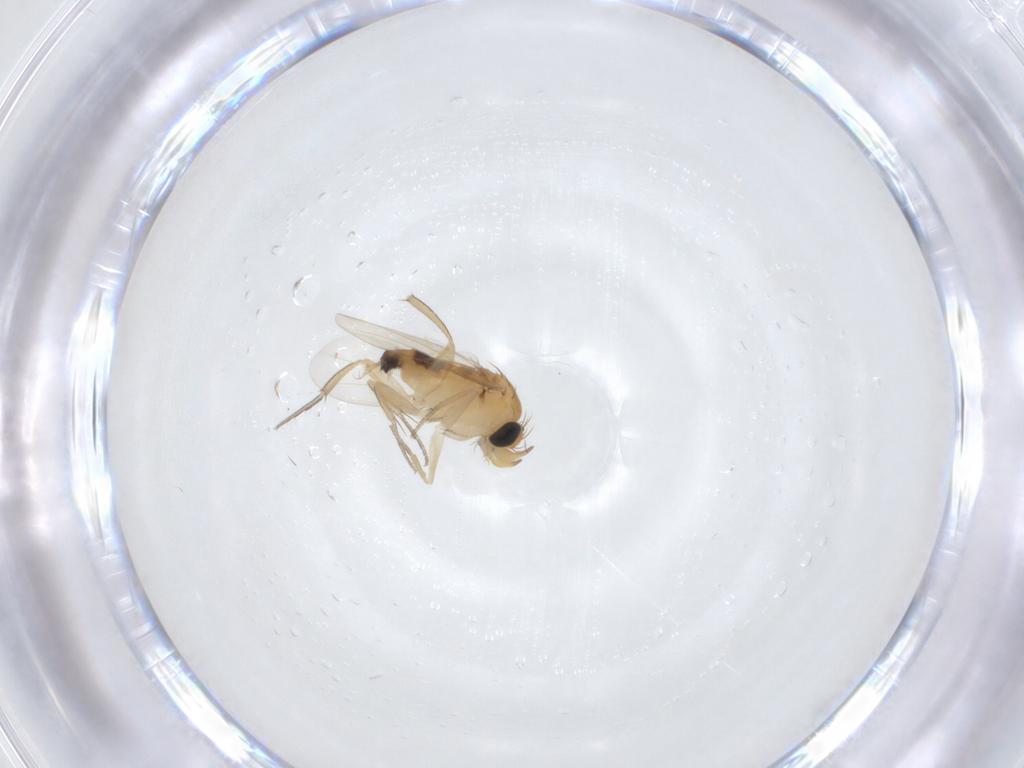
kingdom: Animalia
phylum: Arthropoda
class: Insecta
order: Diptera
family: Phoridae
